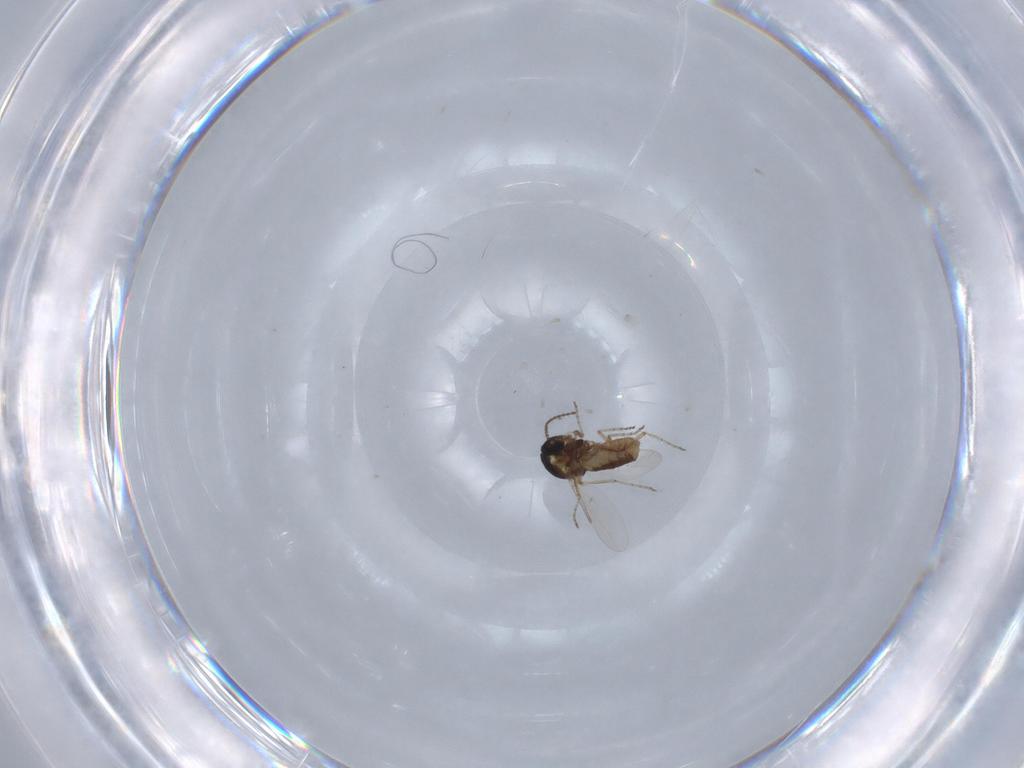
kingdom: Animalia
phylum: Arthropoda
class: Insecta
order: Diptera
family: Ceratopogonidae
